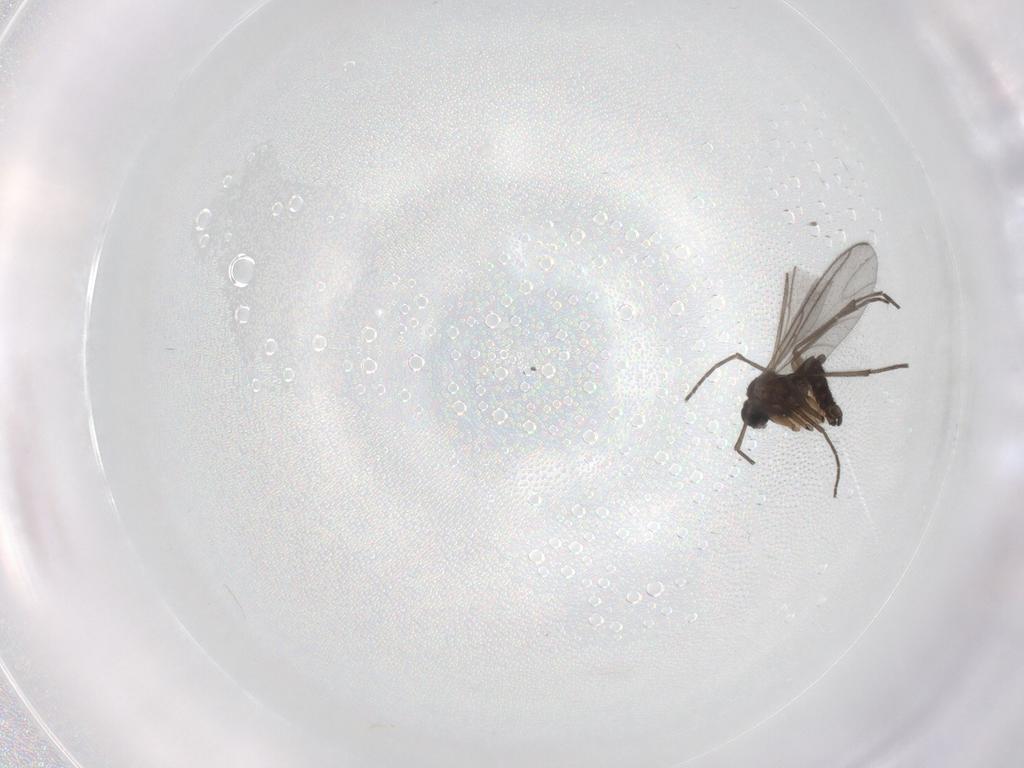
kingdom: Animalia
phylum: Arthropoda
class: Insecta
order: Diptera
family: Sciaridae
